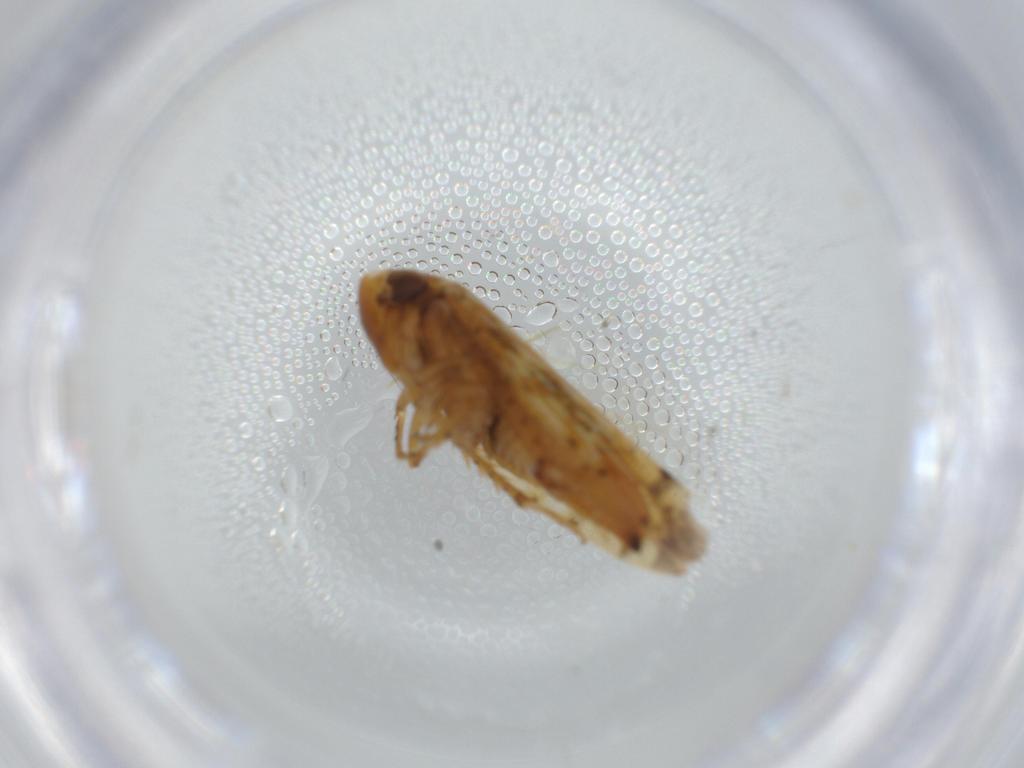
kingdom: Animalia
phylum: Arthropoda
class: Insecta
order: Hemiptera
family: Cicadellidae
